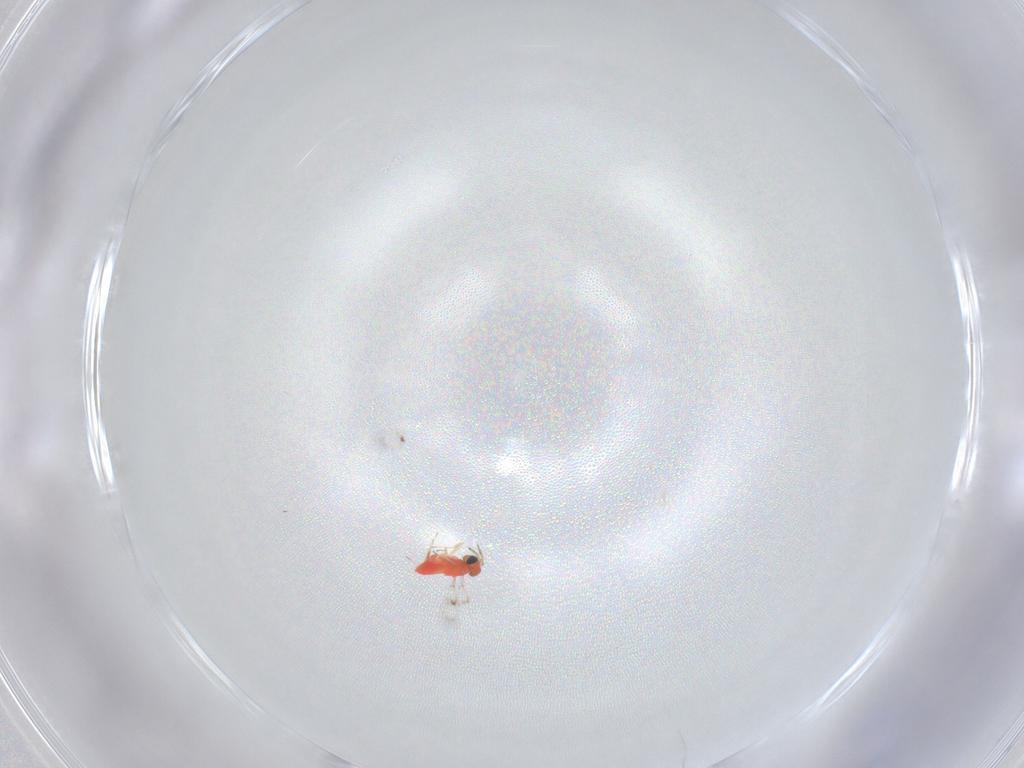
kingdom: Animalia
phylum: Arthropoda
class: Insecta
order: Hymenoptera
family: Trichogrammatidae
